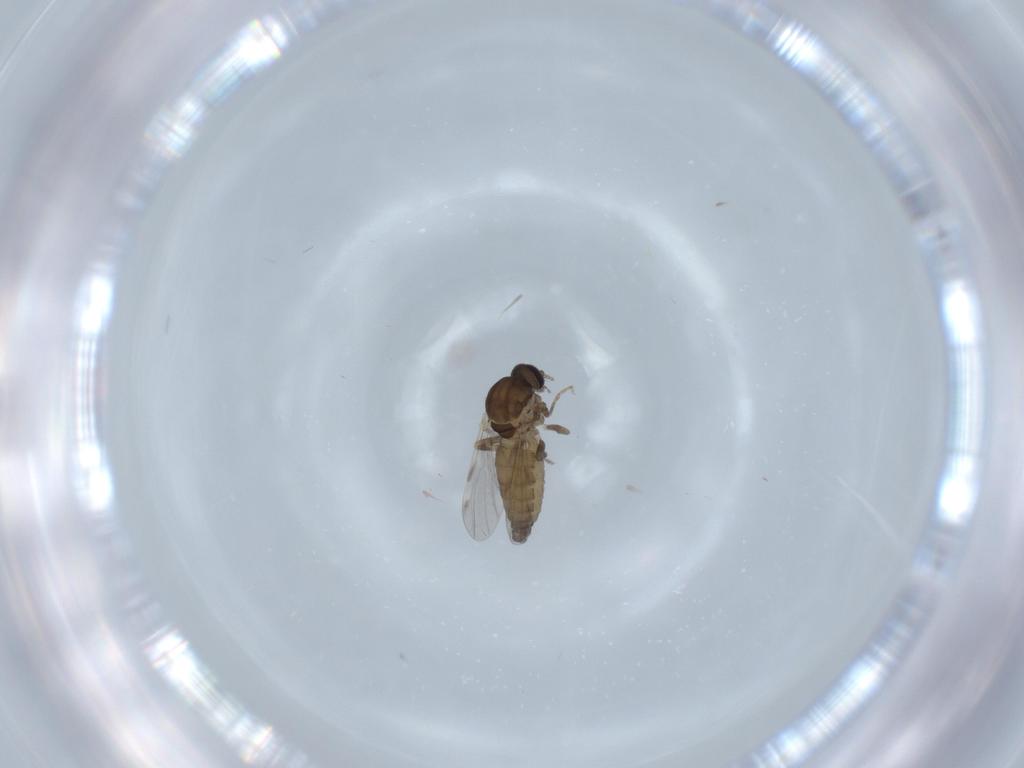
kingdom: Animalia
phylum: Arthropoda
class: Insecta
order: Diptera
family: Ceratopogonidae
